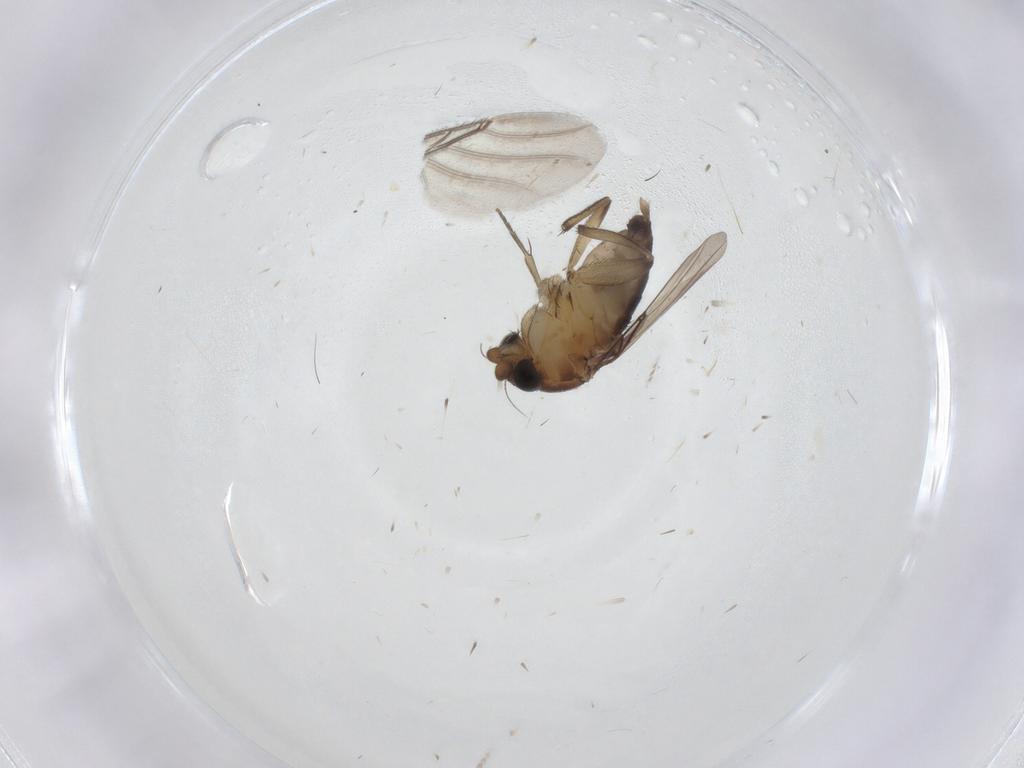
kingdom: Animalia
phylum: Arthropoda
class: Insecta
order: Diptera
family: Phoridae
